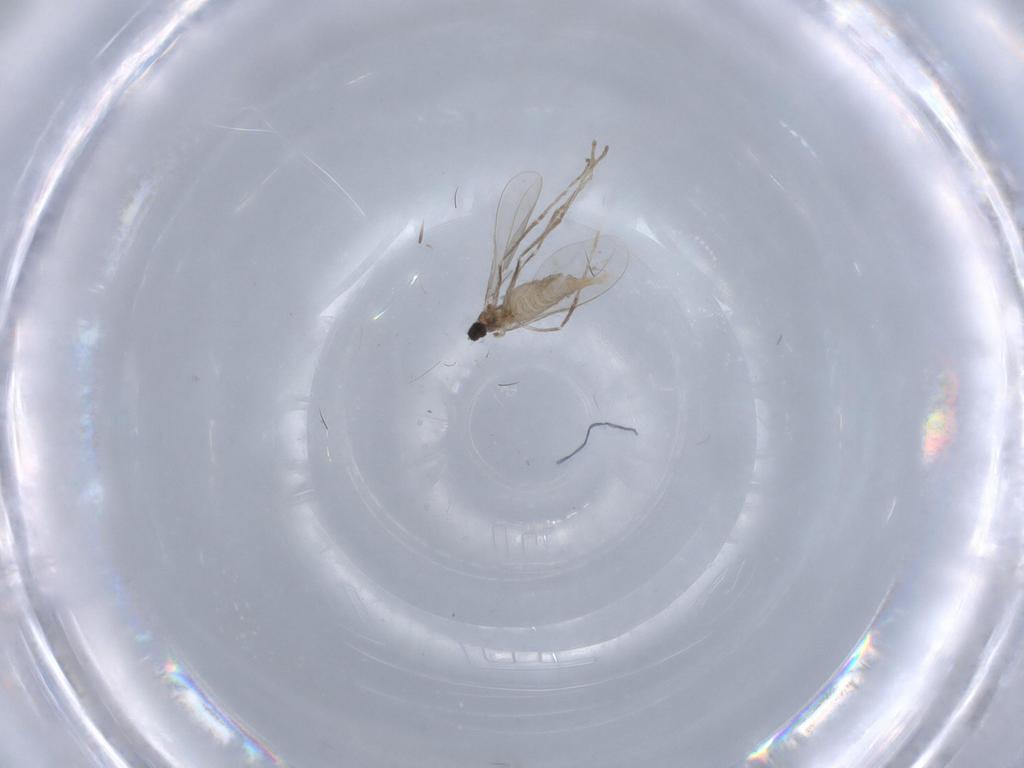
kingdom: Animalia
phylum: Arthropoda
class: Insecta
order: Diptera
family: Cecidomyiidae
